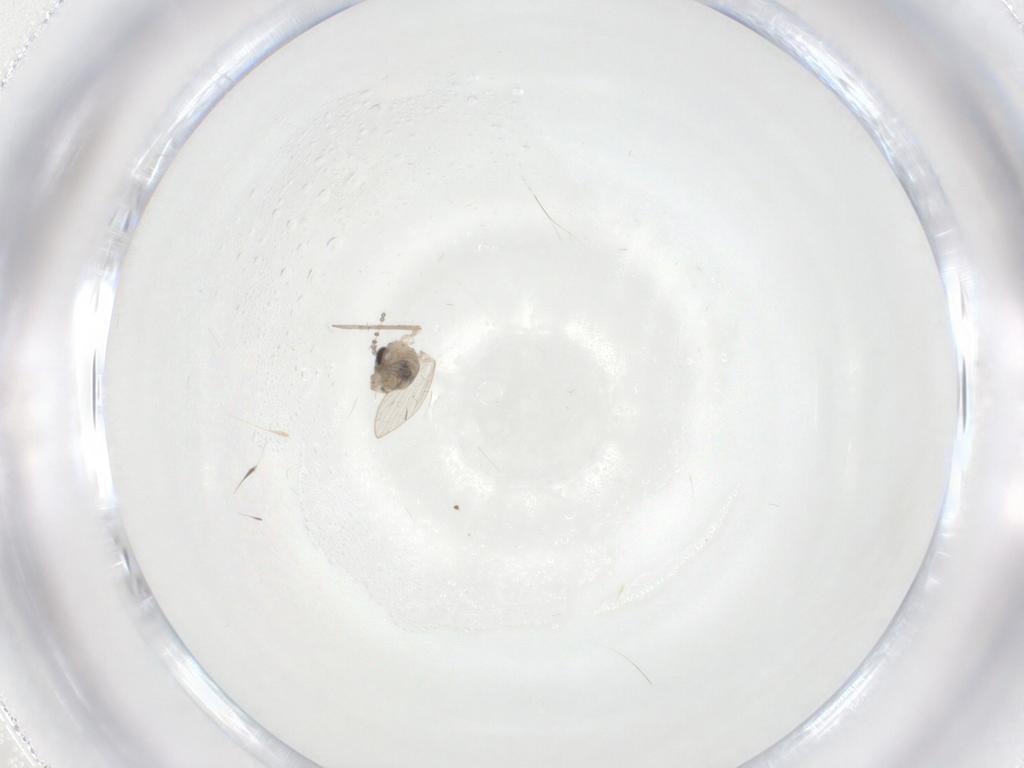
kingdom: Animalia
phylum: Arthropoda
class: Insecta
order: Diptera
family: Psychodidae
